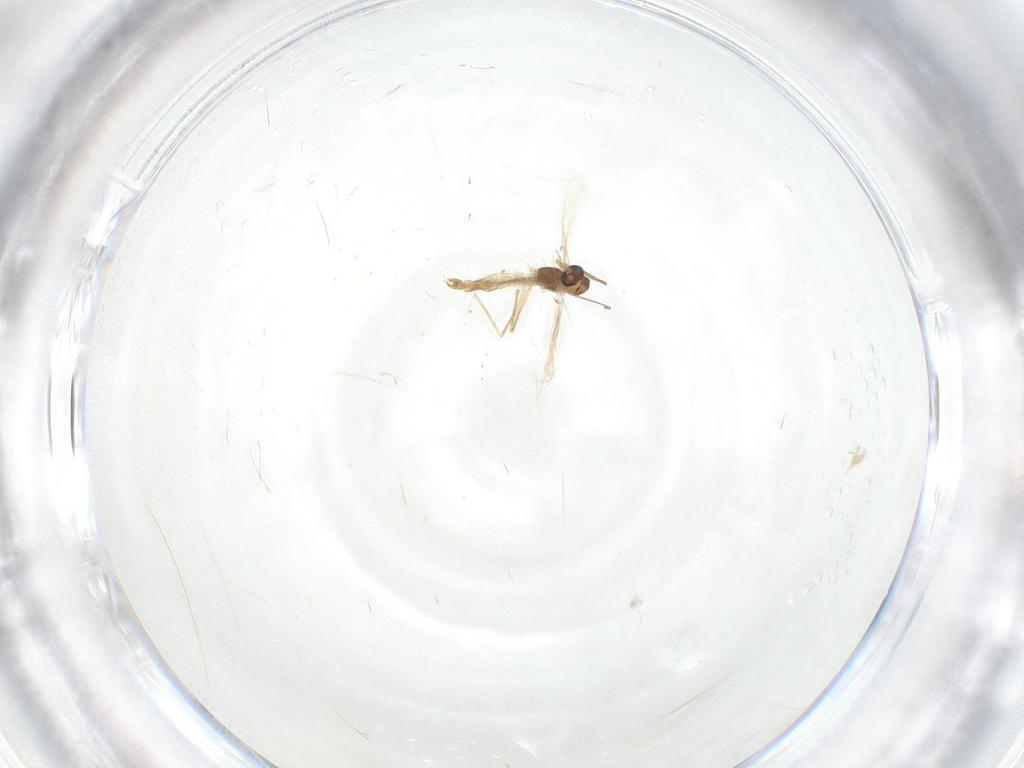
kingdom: Animalia
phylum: Arthropoda
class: Insecta
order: Diptera
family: Chironomidae
